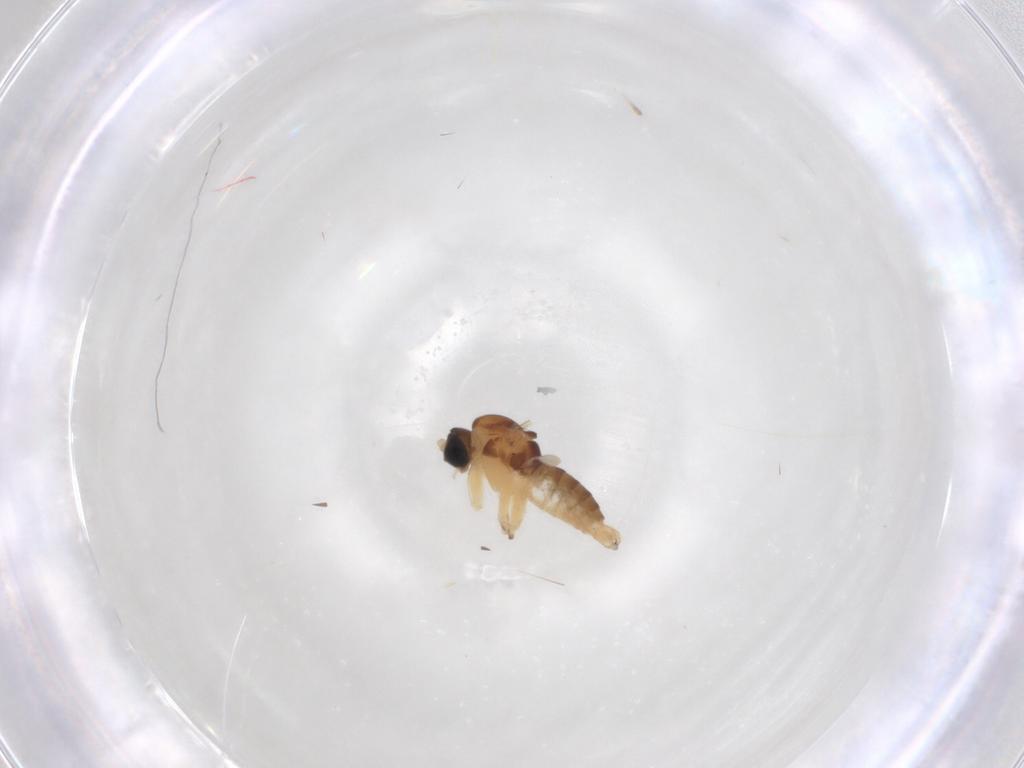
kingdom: Animalia
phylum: Arthropoda
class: Insecta
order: Diptera
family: Sciaridae
